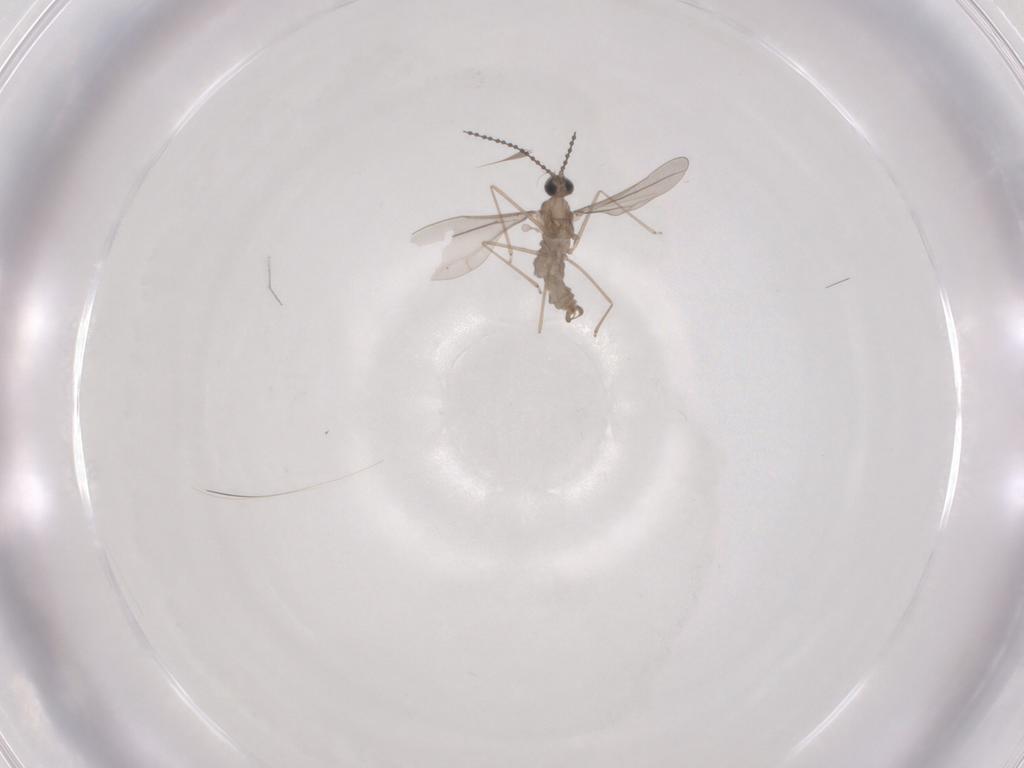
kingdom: Animalia
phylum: Arthropoda
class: Insecta
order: Diptera
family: Cecidomyiidae
